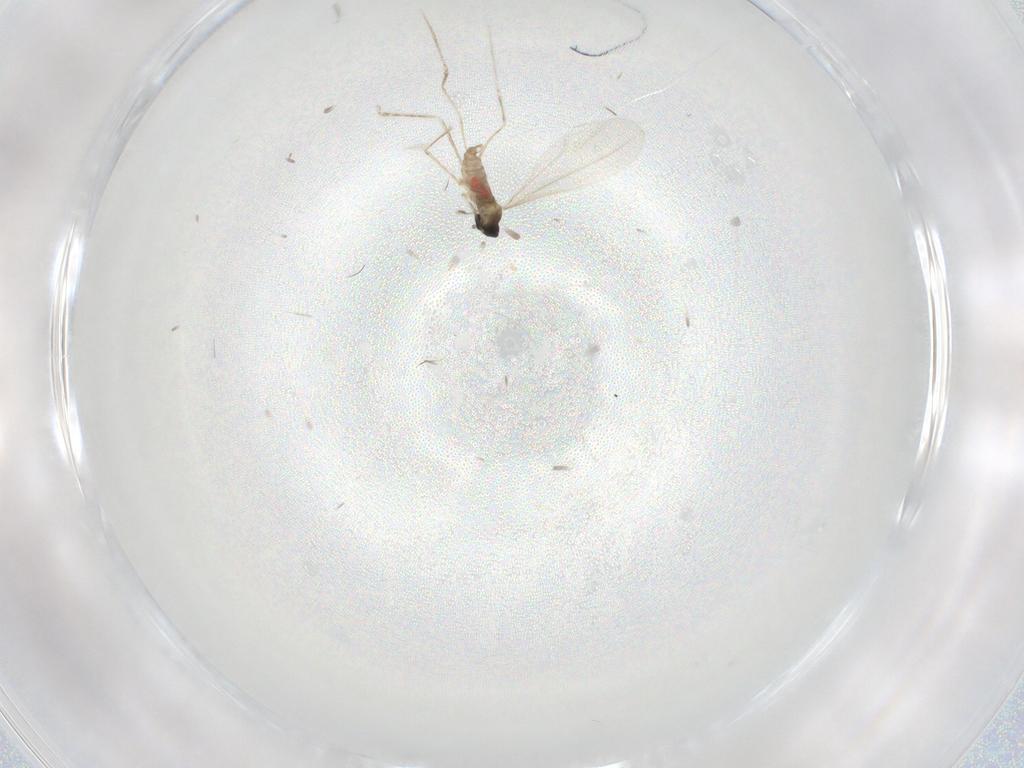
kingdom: Animalia
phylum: Arthropoda
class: Insecta
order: Diptera
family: Cecidomyiidae
